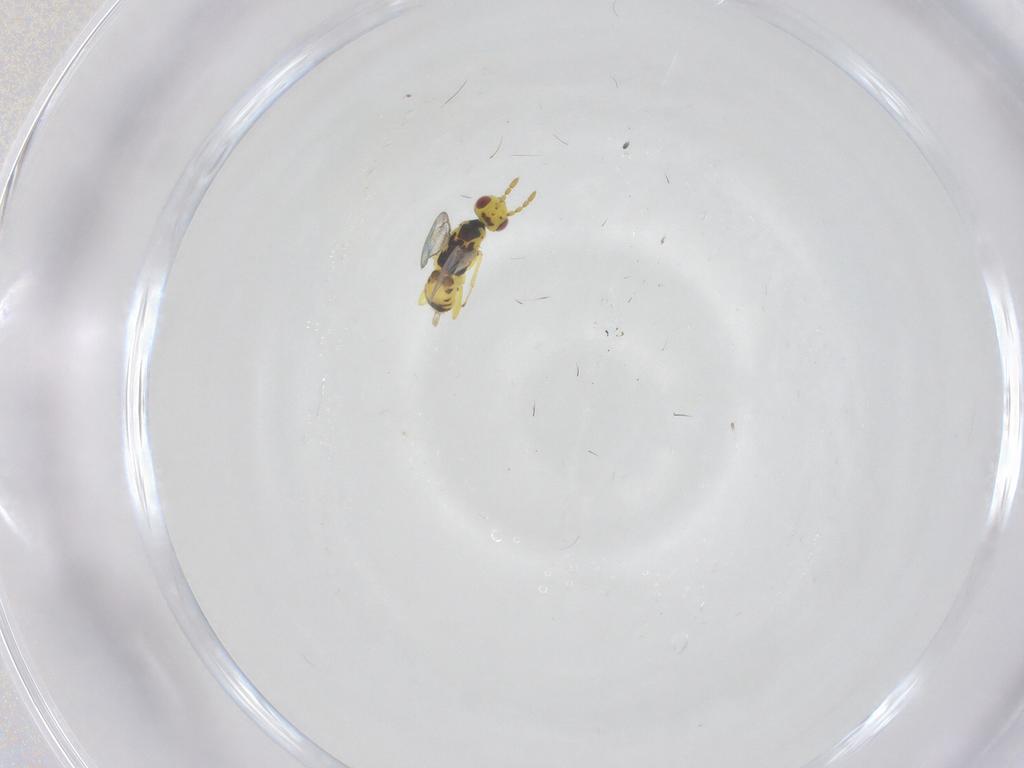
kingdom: Animalia
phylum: Arthropoda
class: Insecta
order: Hymenoptera
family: Eulophidae
